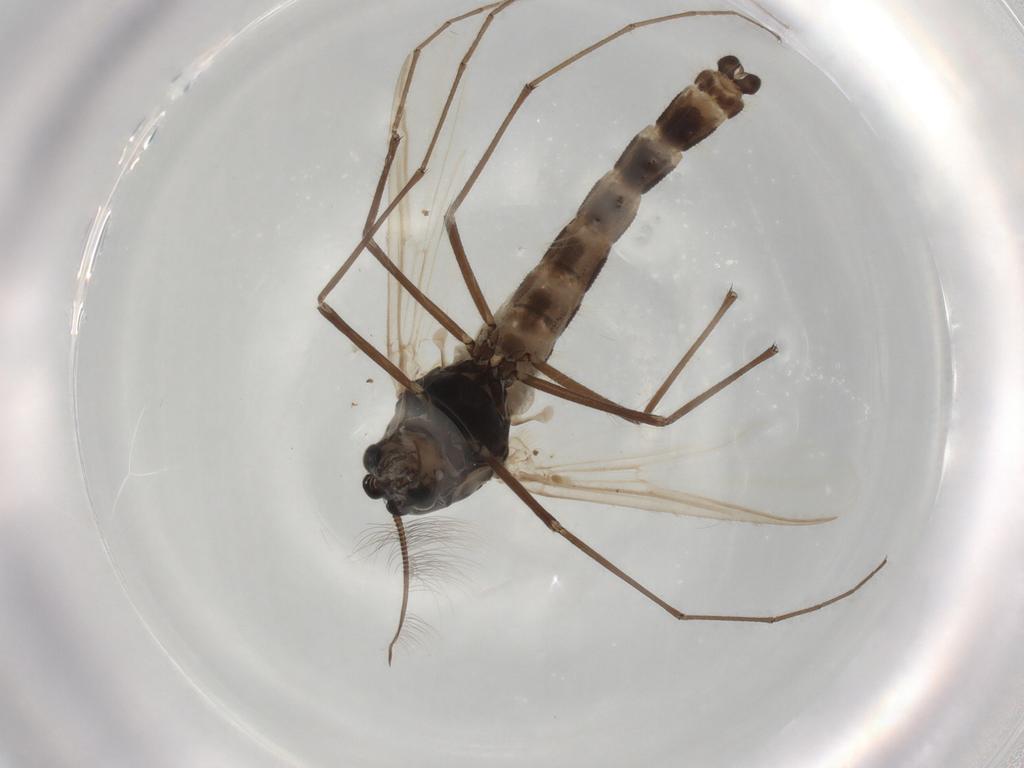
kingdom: Animalia
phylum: Arthropoda
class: Insecta
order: Diptera
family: Chironomidae
